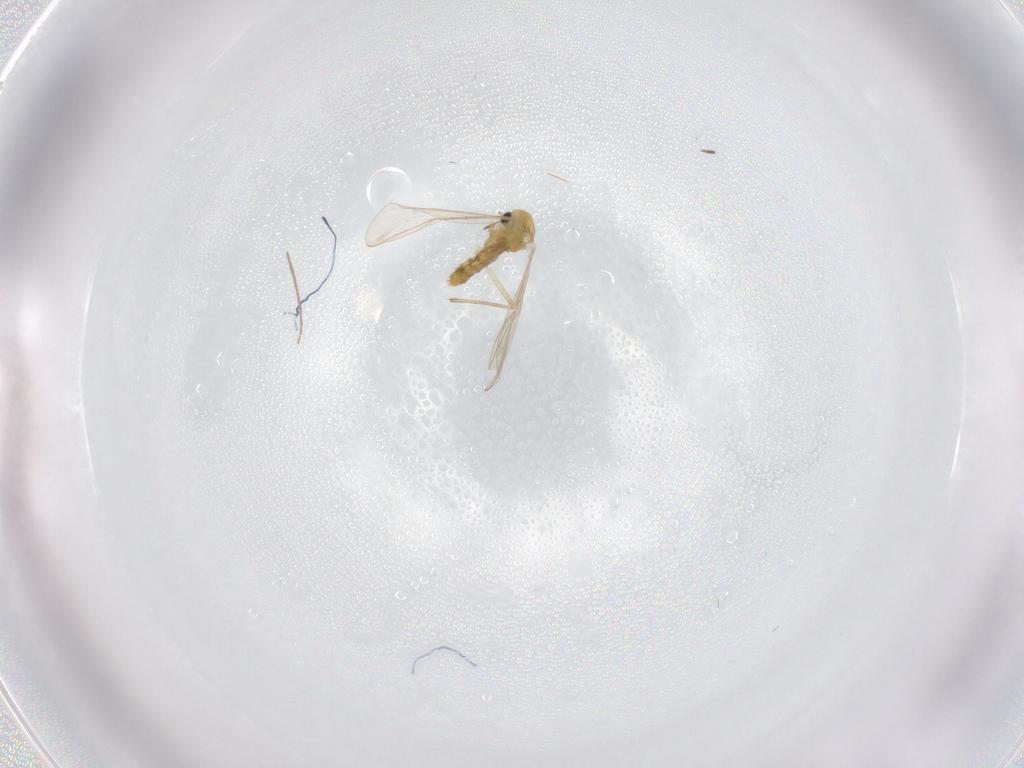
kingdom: Animalia
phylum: Arthropoda
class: Insecta
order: Diptera
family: Chironomidae
